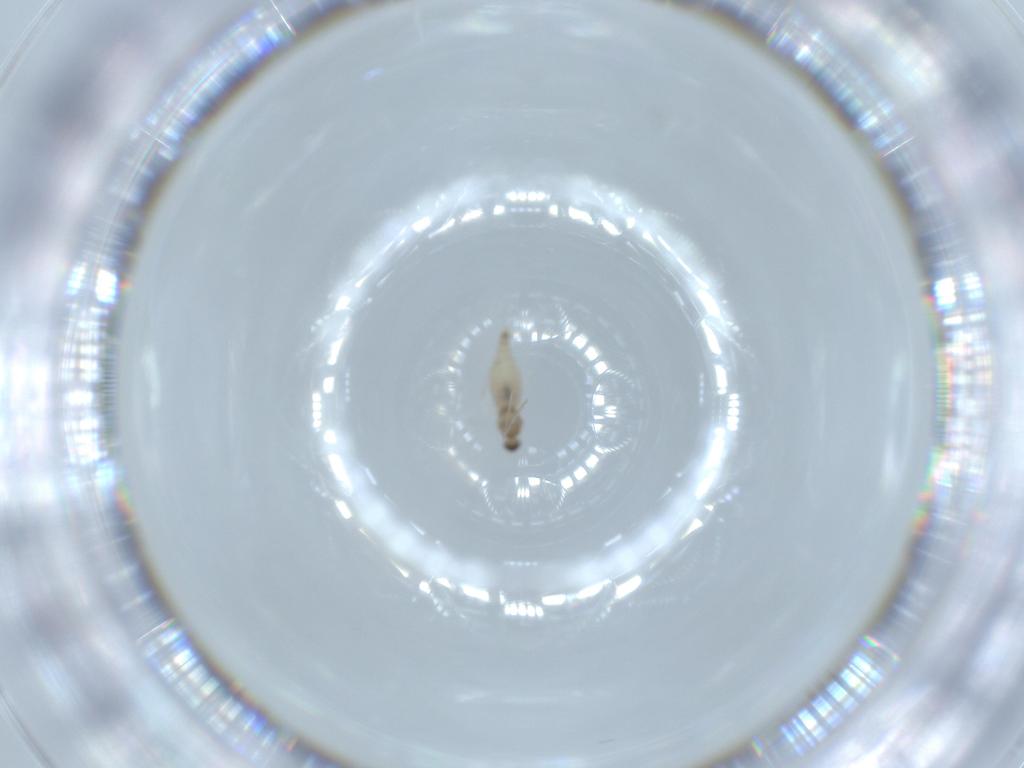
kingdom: Animalia
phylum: Arthropoda
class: Insecta
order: Diptera
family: Cecidomyiidae
